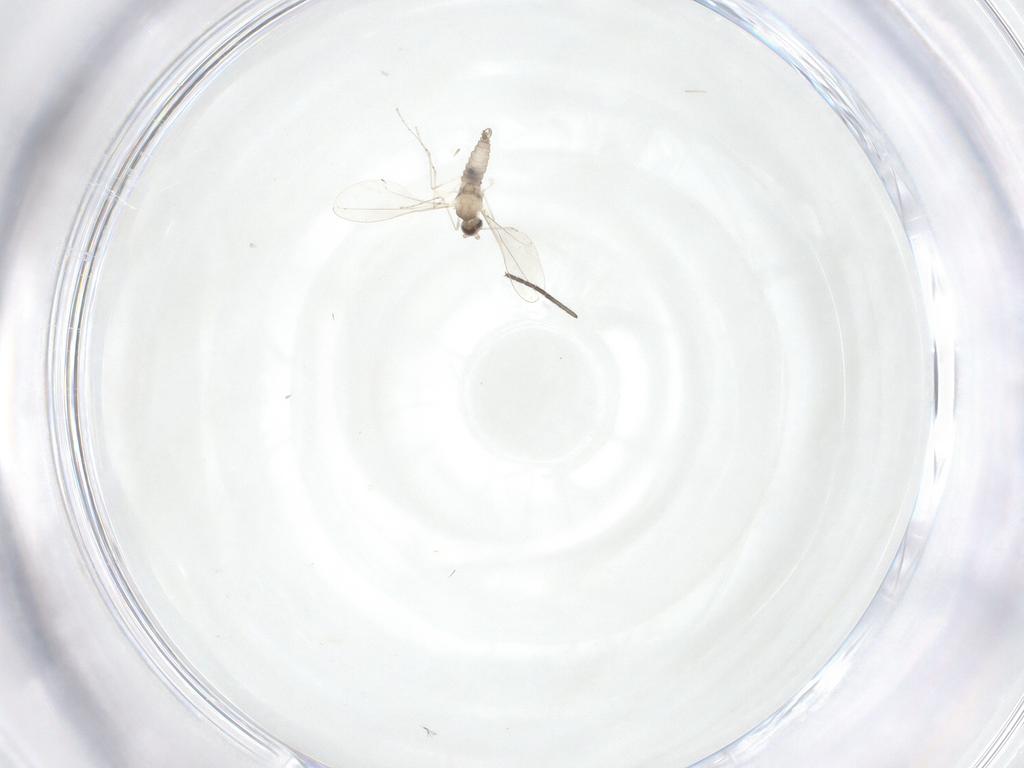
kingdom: Animalia
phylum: Arthropoda
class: Insecta
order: Diptera
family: Sciaridae
